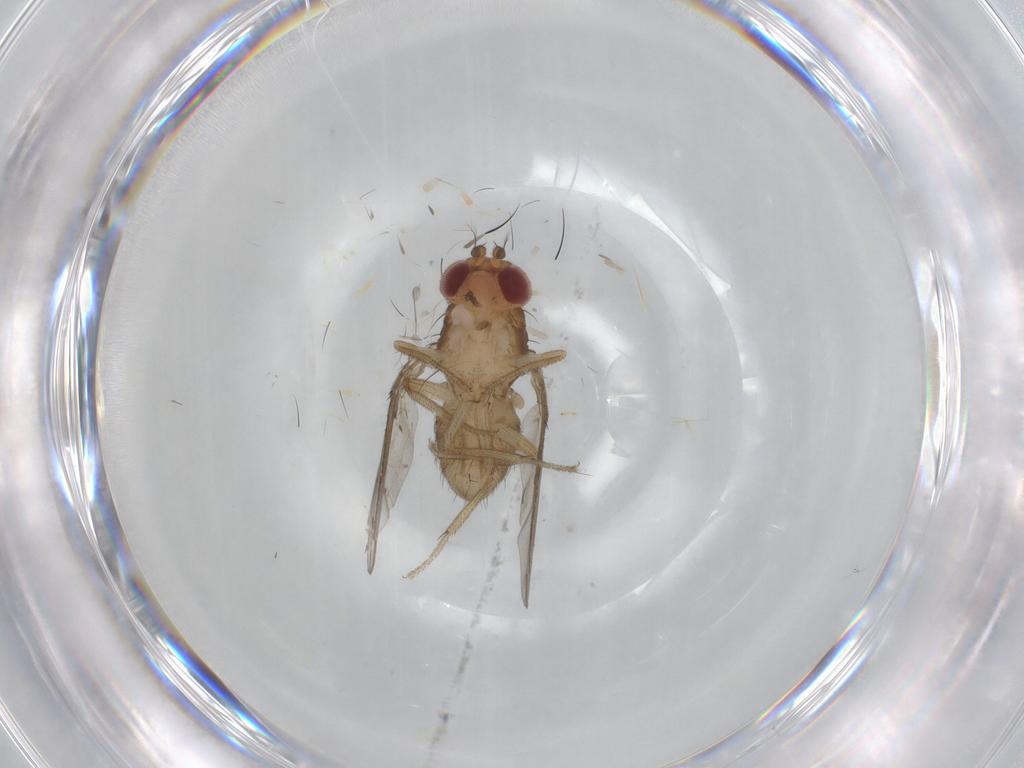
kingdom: Animalia
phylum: Arthropoda
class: Insecta
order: Diptera
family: Drosophilidae
